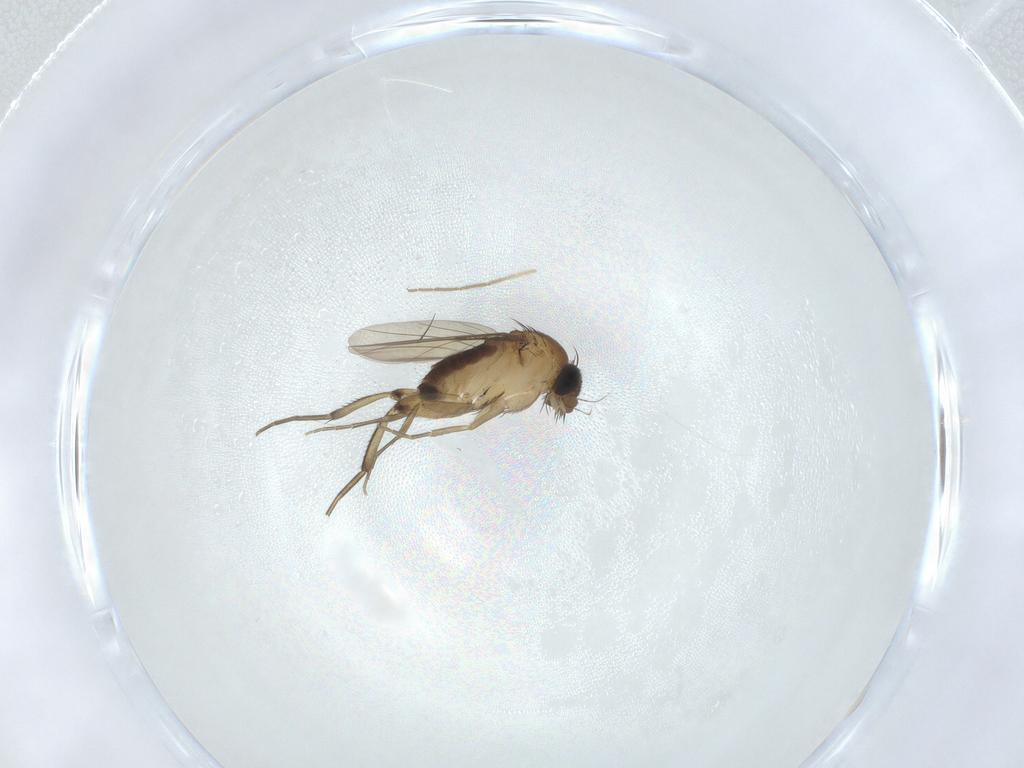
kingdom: Animalia
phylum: Arthropoda
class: Insecta
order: Diptera
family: Phoridae
